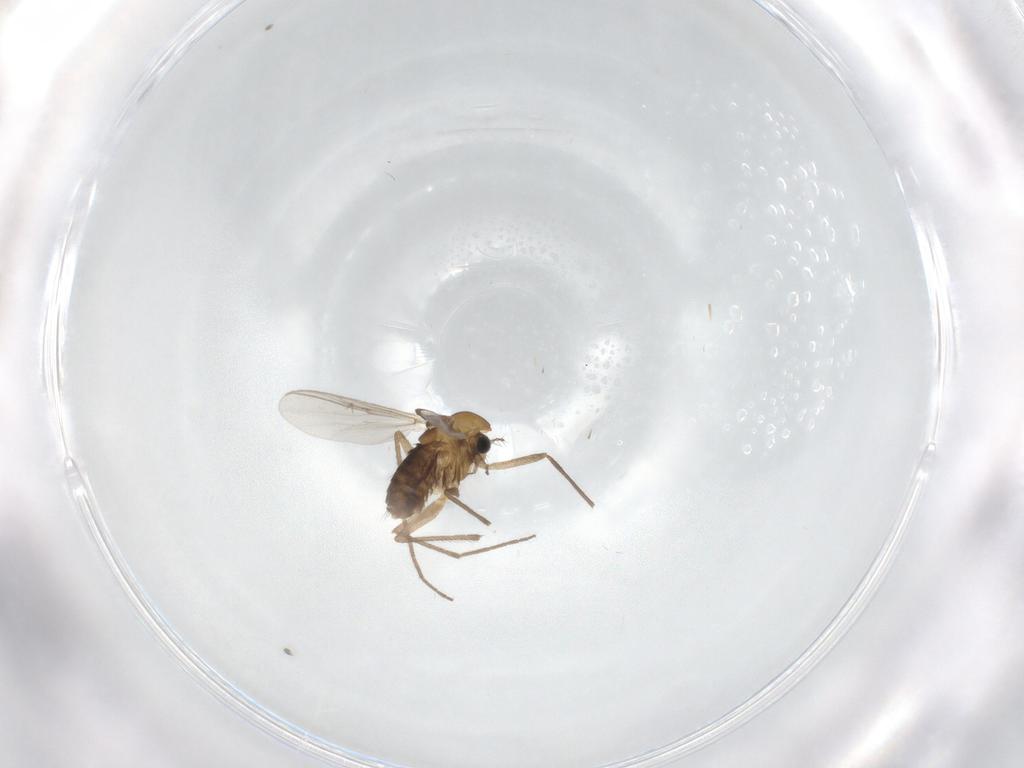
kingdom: Animalia
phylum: Arthropoda
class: Insecta
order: Diptera
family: Chironomidae
